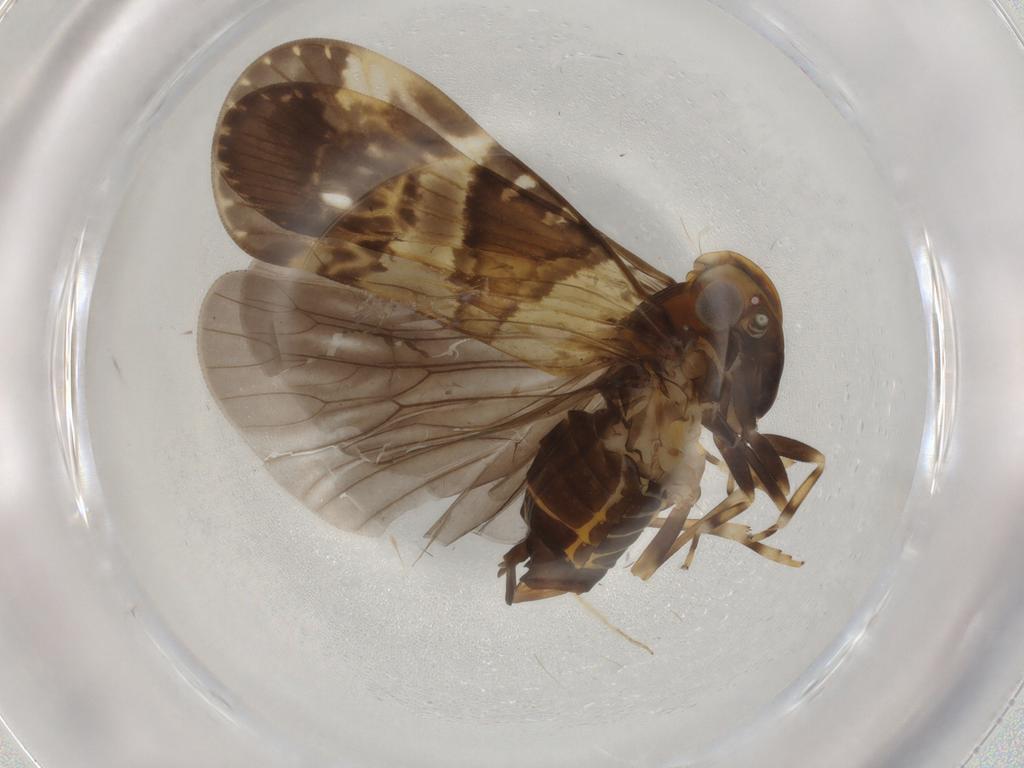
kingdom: Animalia
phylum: Arthropoda
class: Insecta
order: Hemiptera
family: Cixiidae
